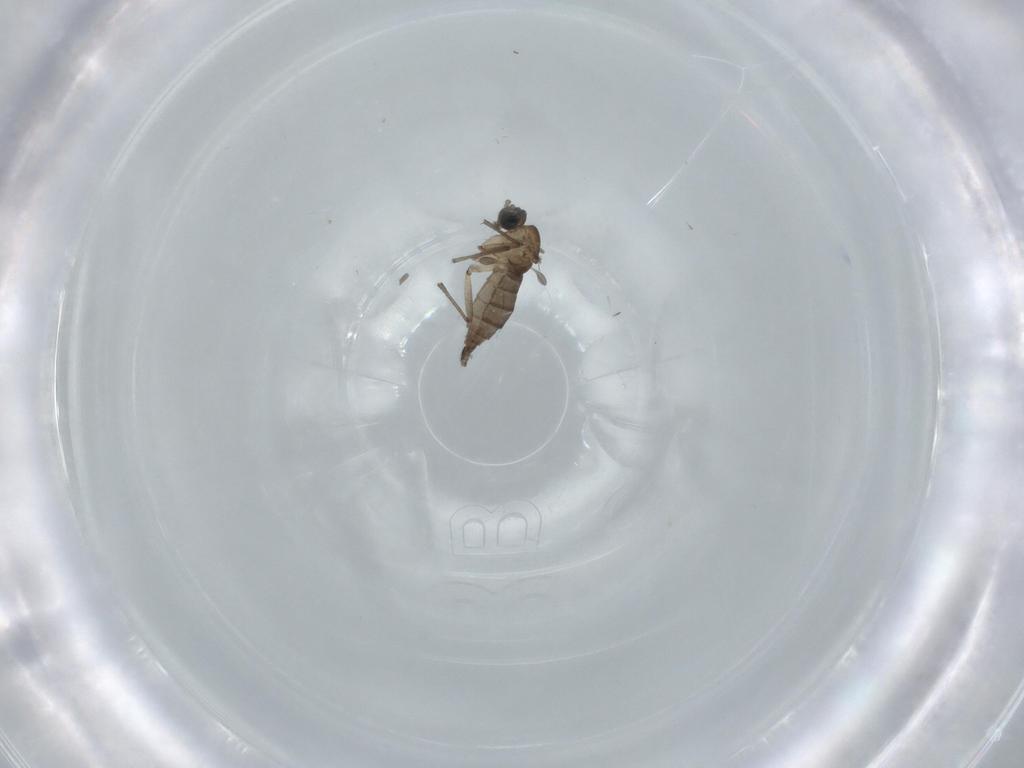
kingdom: Animalia
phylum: Arthropoda
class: Insecta
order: Diptera
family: Sciaridae
